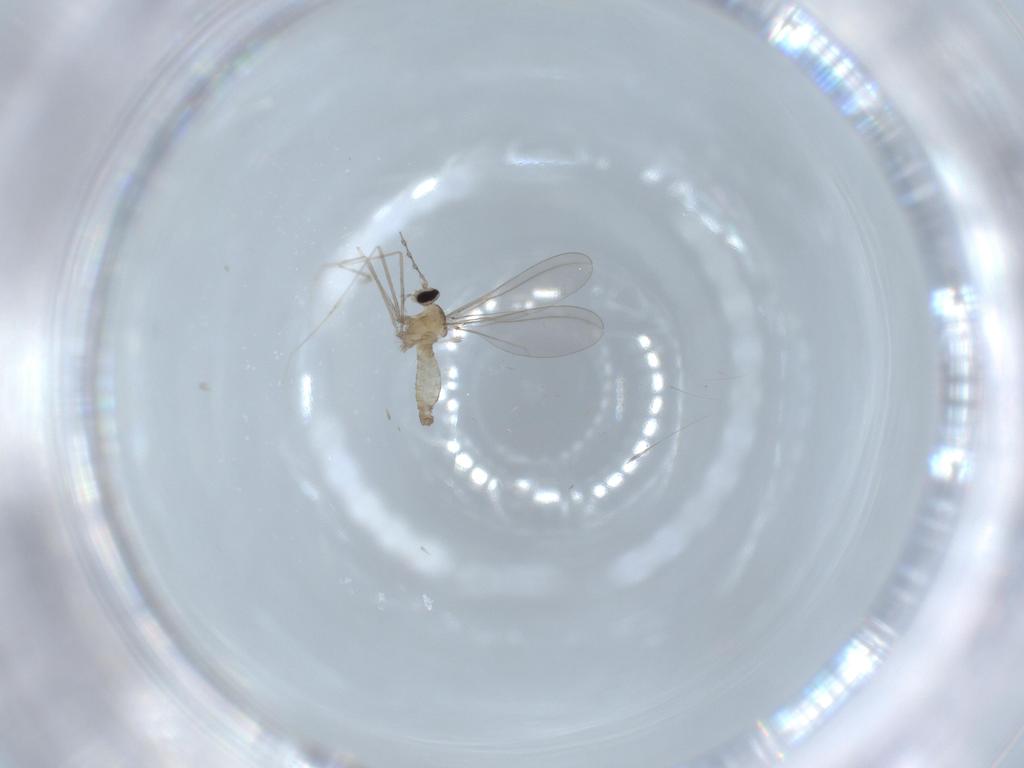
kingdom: Animalia
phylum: Arthropoda
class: Insecta
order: Diptera
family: Cecidomyiidae
